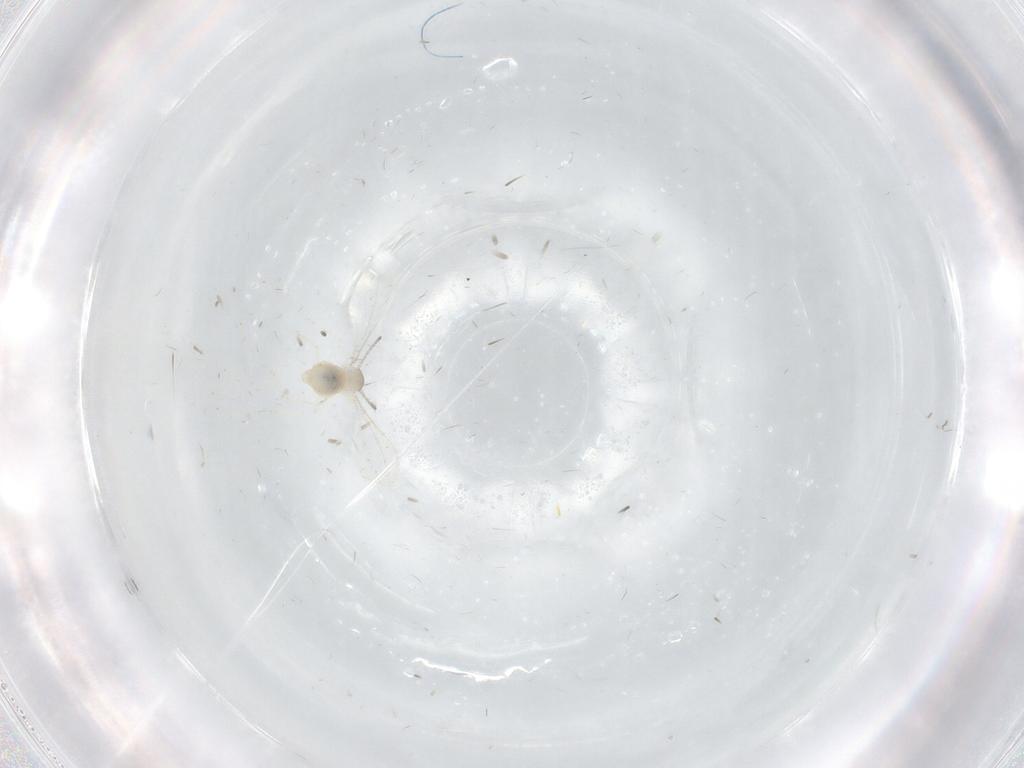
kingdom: Animalia
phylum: Arthropoda
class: Insecta
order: Diptera
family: Cecidomyiidae
